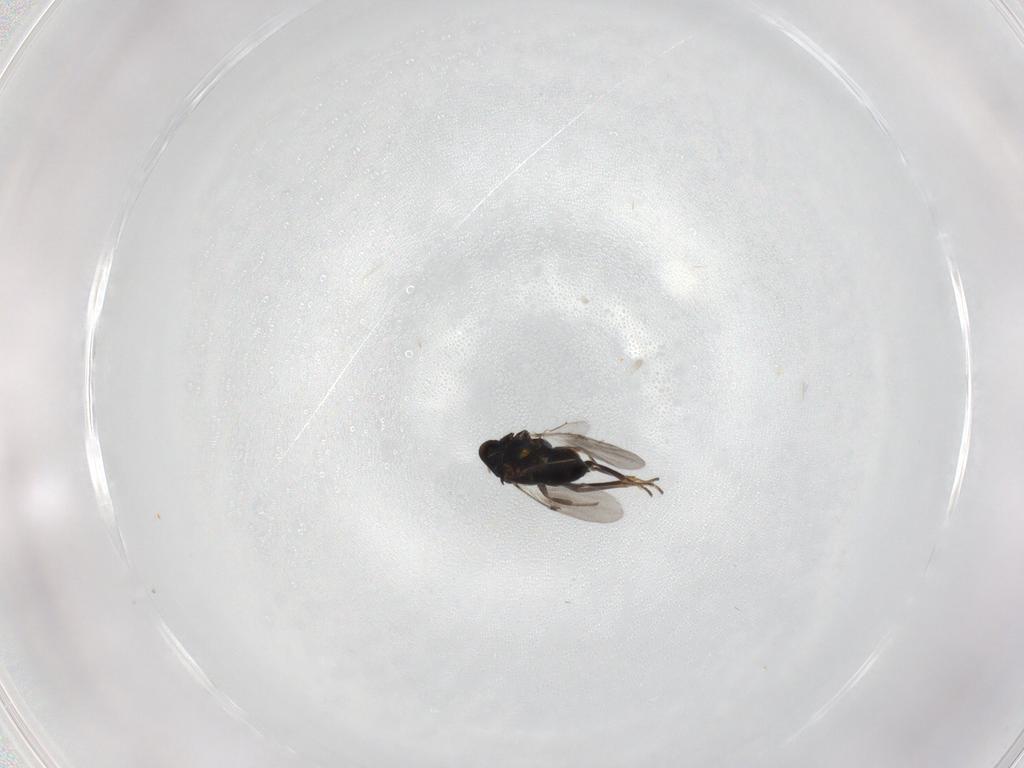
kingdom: Animalia
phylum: Arthropoda
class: Insecta
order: Hymenoptera
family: Encyrtidae
